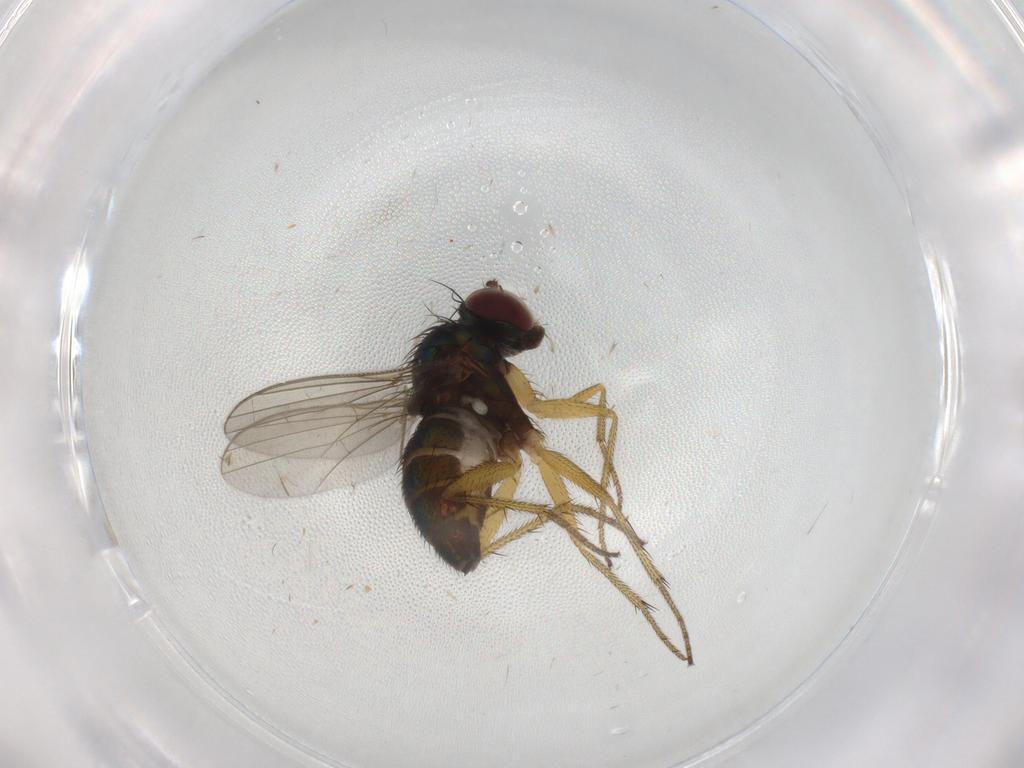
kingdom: Animalia
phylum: Arthropoda
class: Insecta
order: Diptera
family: Dolichopodidae
